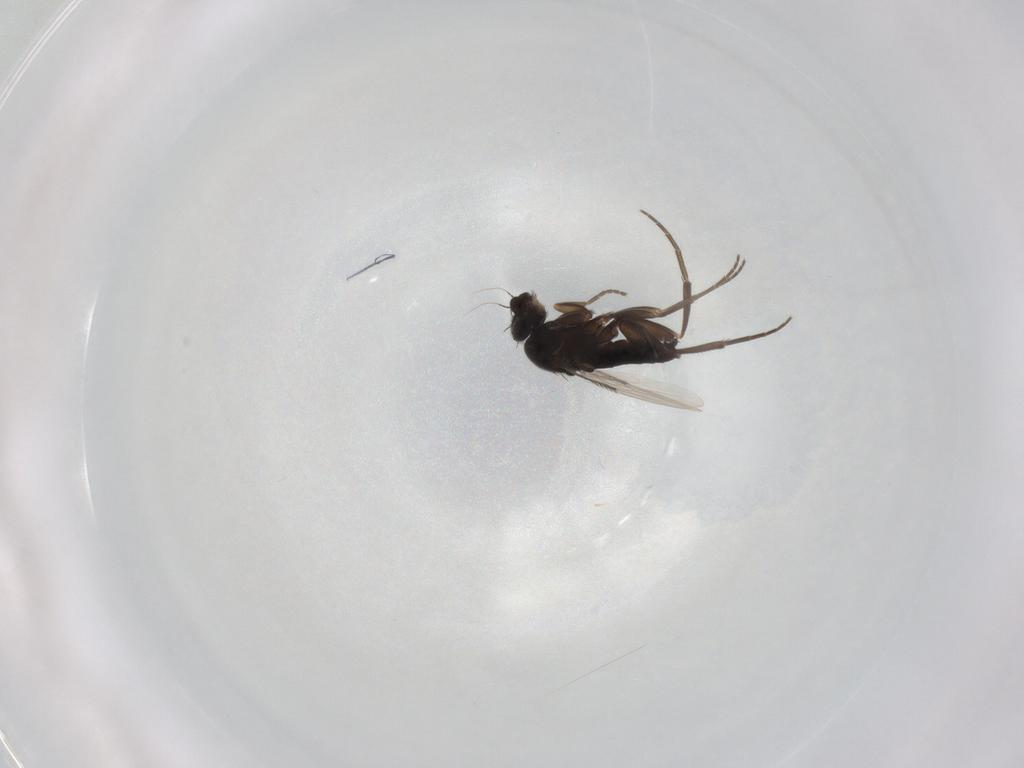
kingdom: Animalia
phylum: Arthropoda
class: Insecta
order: Diptera
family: Phoridae
